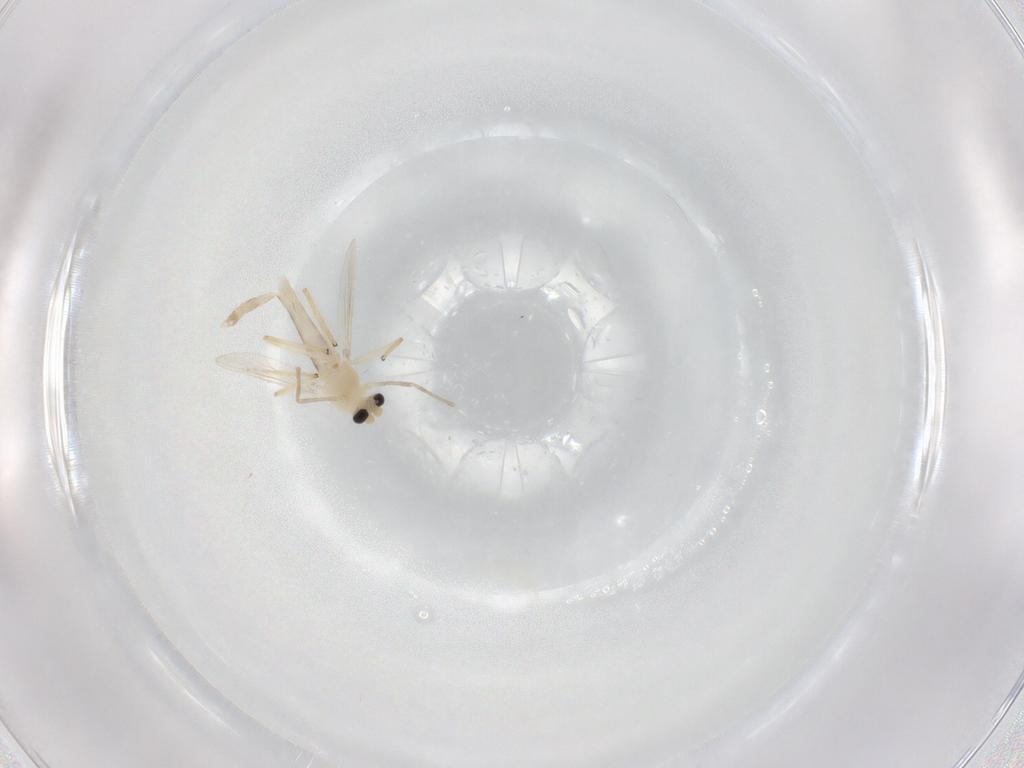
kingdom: Animalia
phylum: Arthropoda
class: Insecta
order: Diptera
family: Chironomidae
